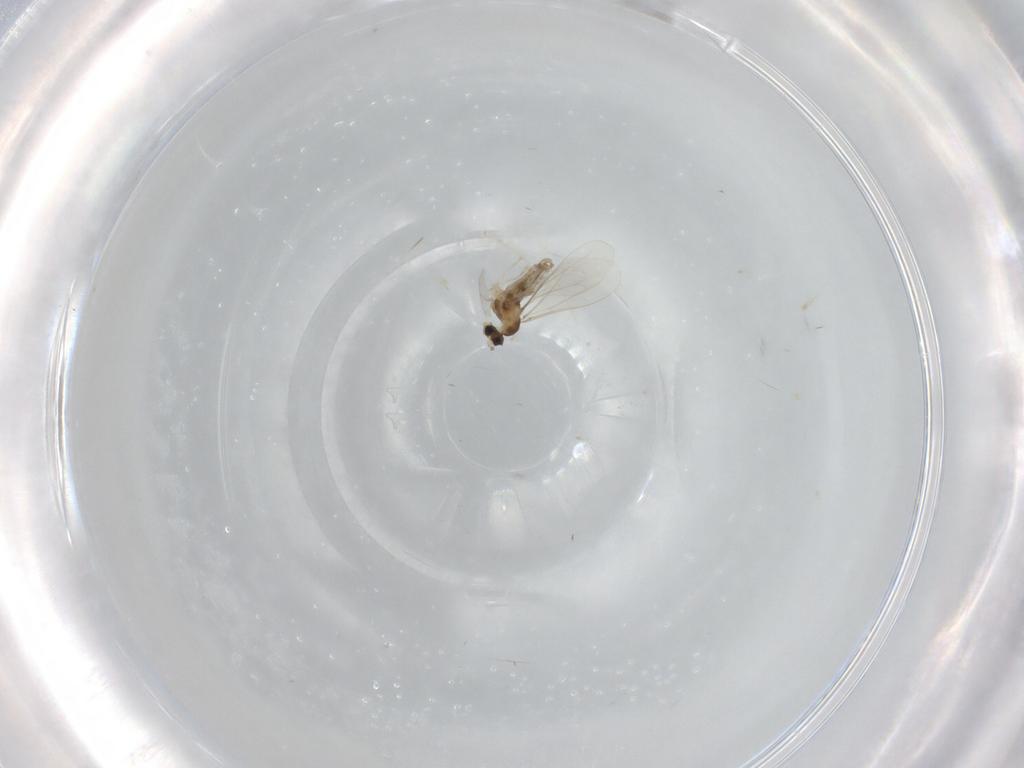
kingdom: Animalia
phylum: Arthropoda
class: Insecta
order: Diptera
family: Cecidomyiidae
